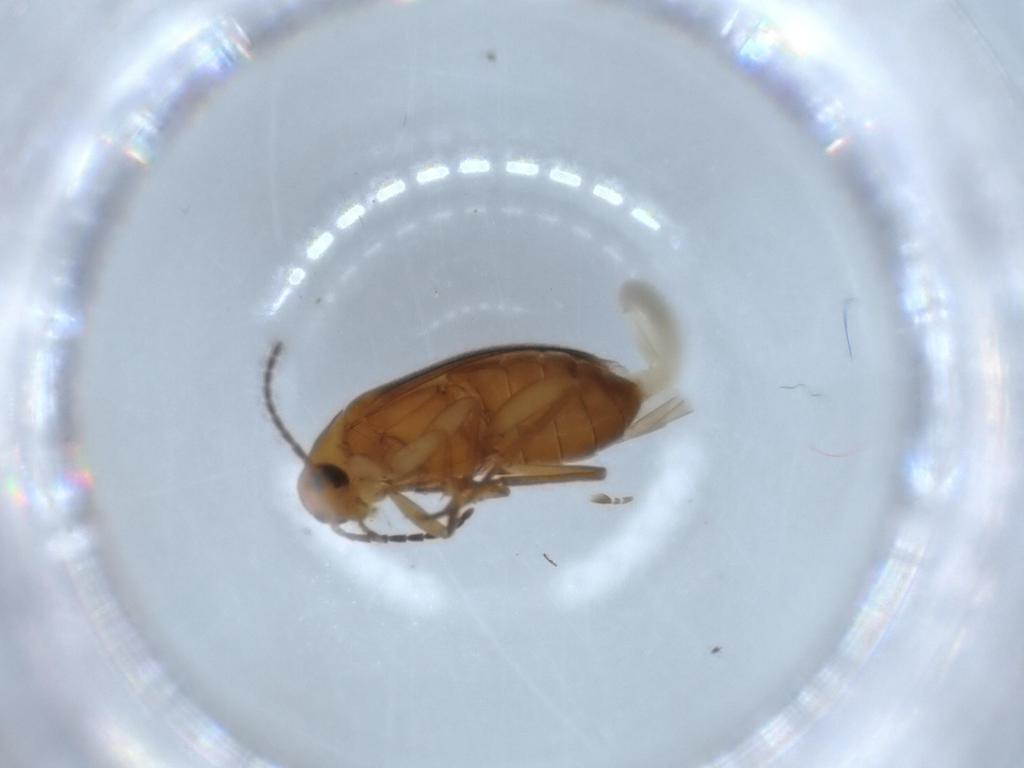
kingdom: Animalia
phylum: Arthropoda
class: Insecta
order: Coleoptera
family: Scraptiidae
